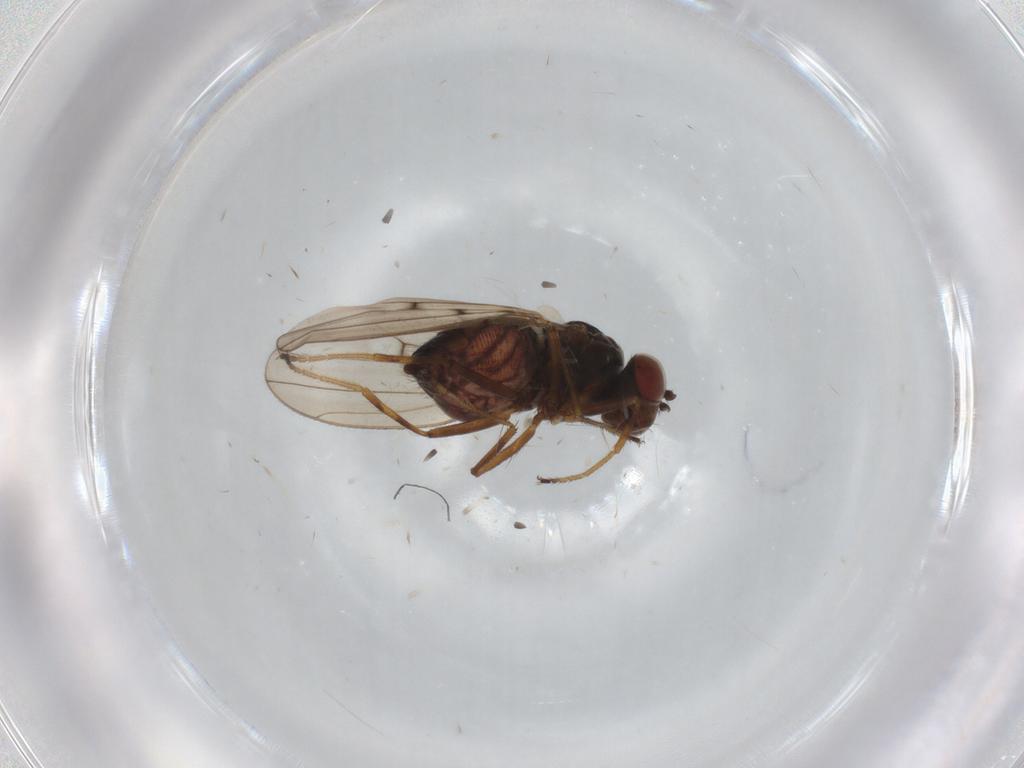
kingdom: Animalia
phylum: Arthropoda
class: Insecta
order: Diptera
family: Ephydridae
